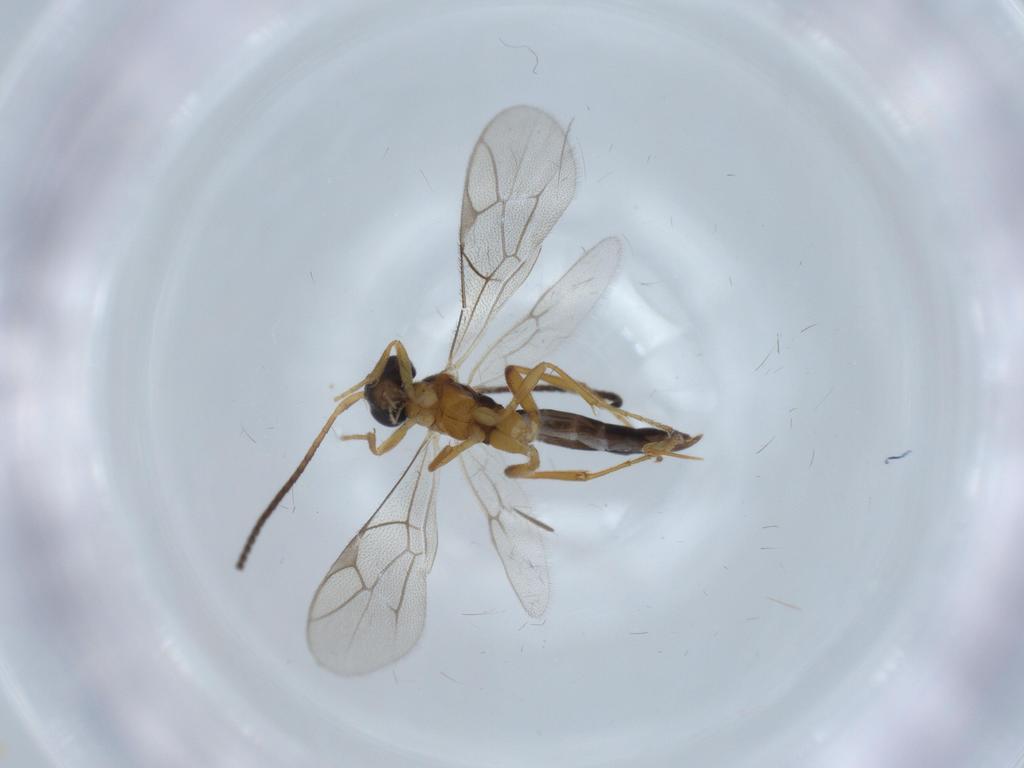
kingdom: Animalia
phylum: Arthropoda
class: Insecta
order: Hymenoptera
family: Ichneumonidae
